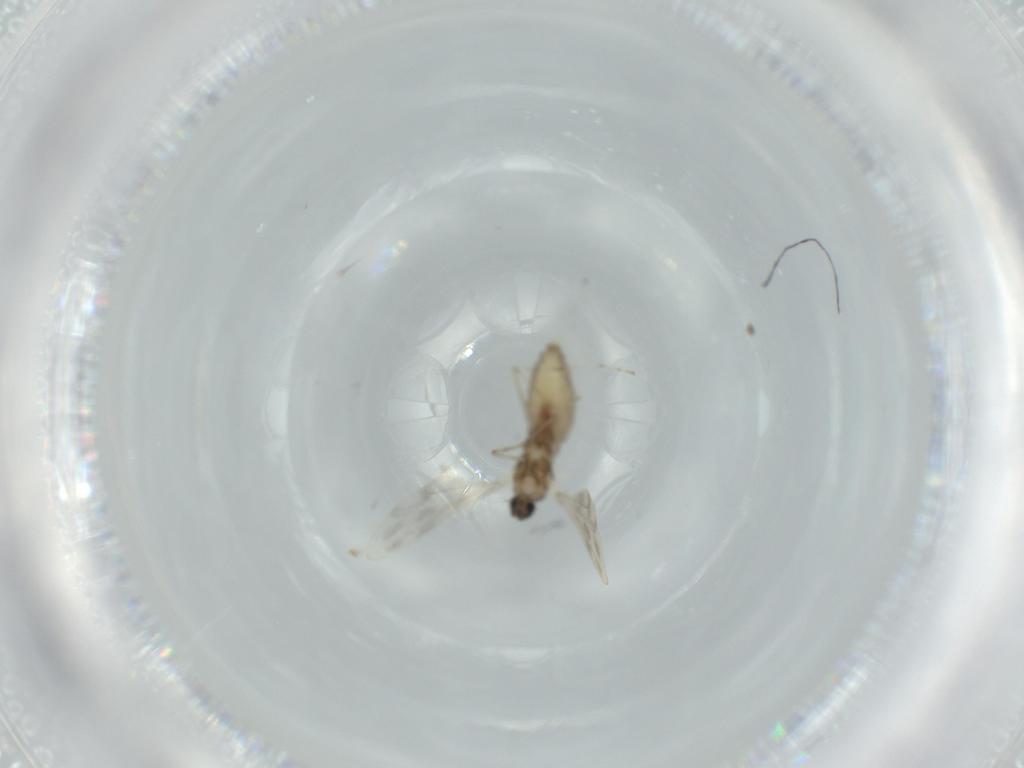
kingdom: Animalia
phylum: Arthropoda
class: Insecta
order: Diptera
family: Cecidomyiidae
